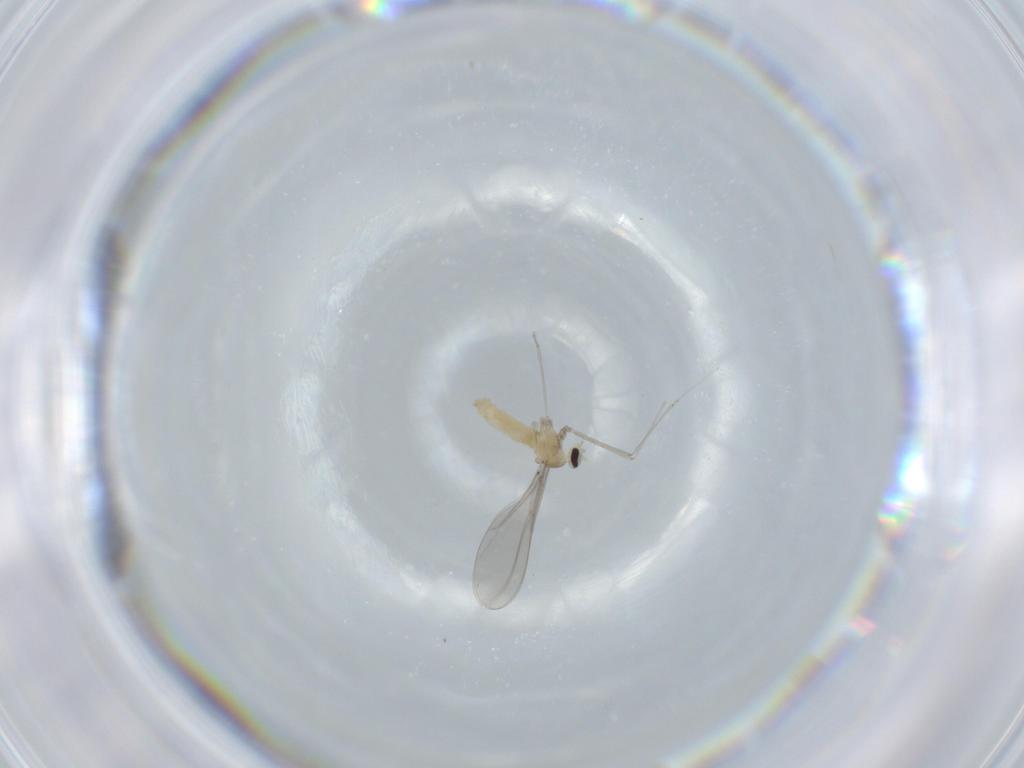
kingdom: Animalia
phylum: Arthropoda
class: Insecta
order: Diptera
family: Cecidomyiidae
